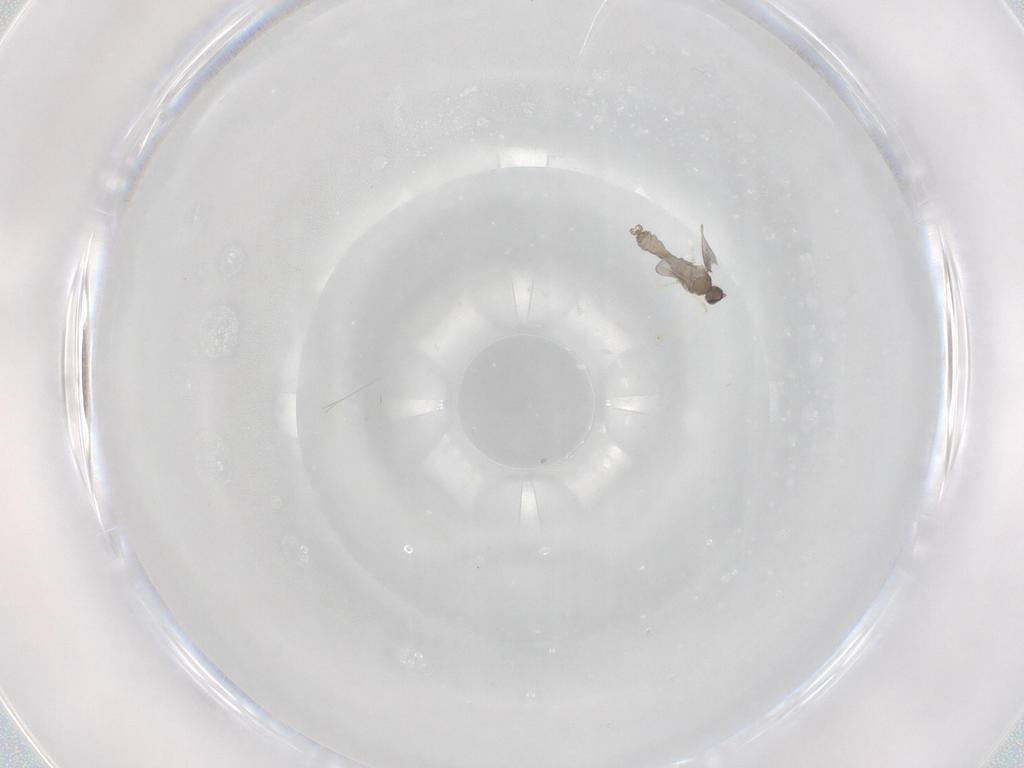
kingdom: Animalia
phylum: Arthropoda
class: Insecta
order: Diptera
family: Cecidomyiidae
